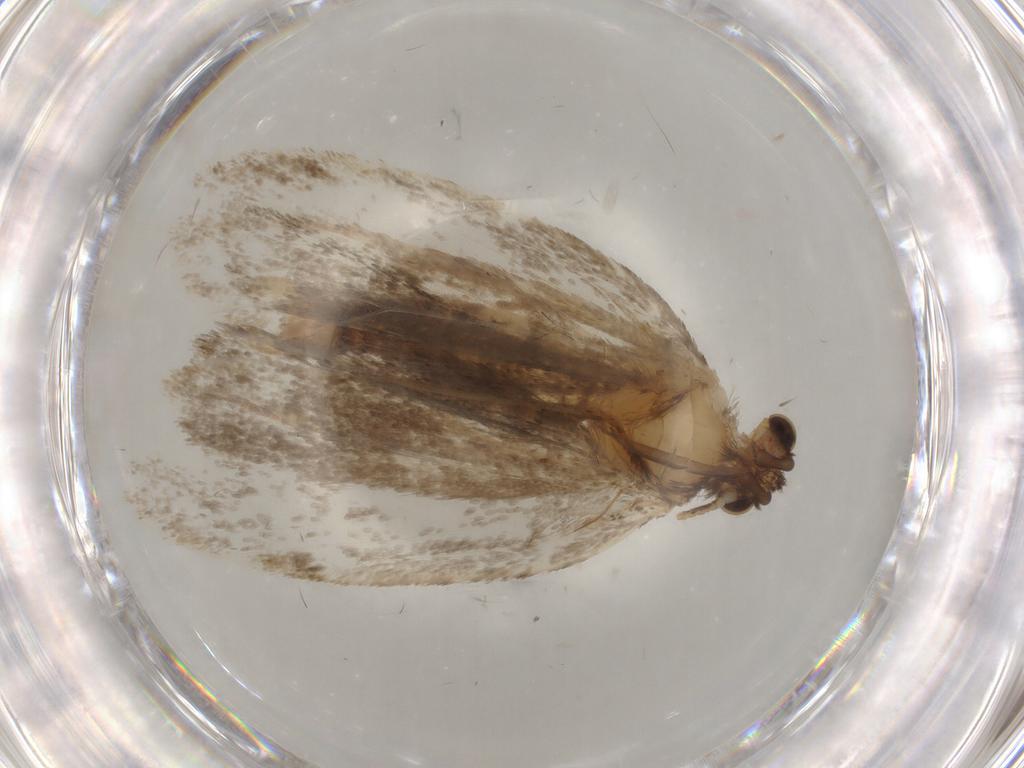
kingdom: Animalia
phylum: Arthropoda
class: Insecta
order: Lepidoptera
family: Tineidae
